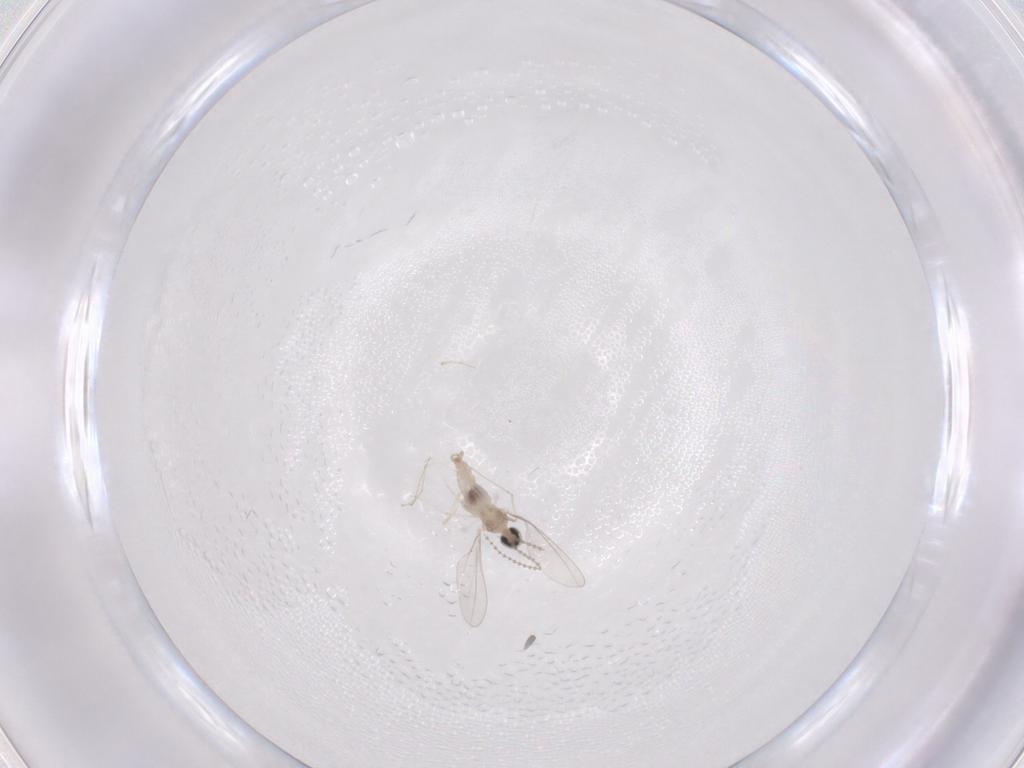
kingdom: Animalia
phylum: Arthropoda
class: Insecta
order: Diptera
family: Cecidomyiidae
